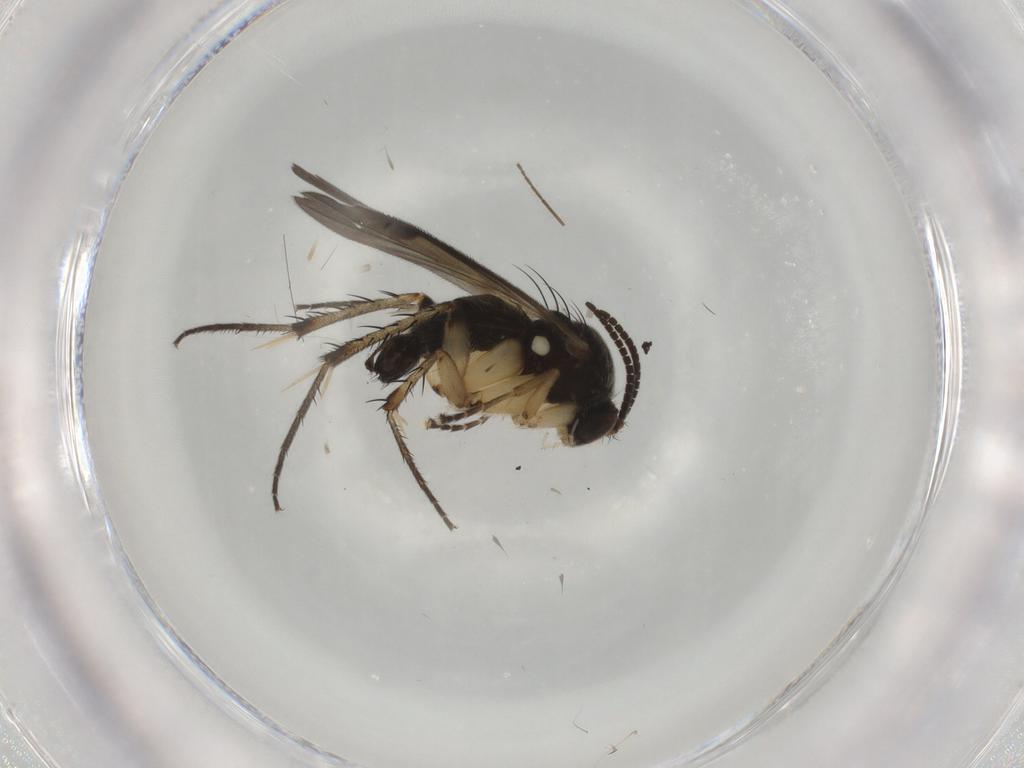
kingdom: Animalia
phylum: Arthropoda
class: Insecta
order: Diptera
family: Mycetophilidae
